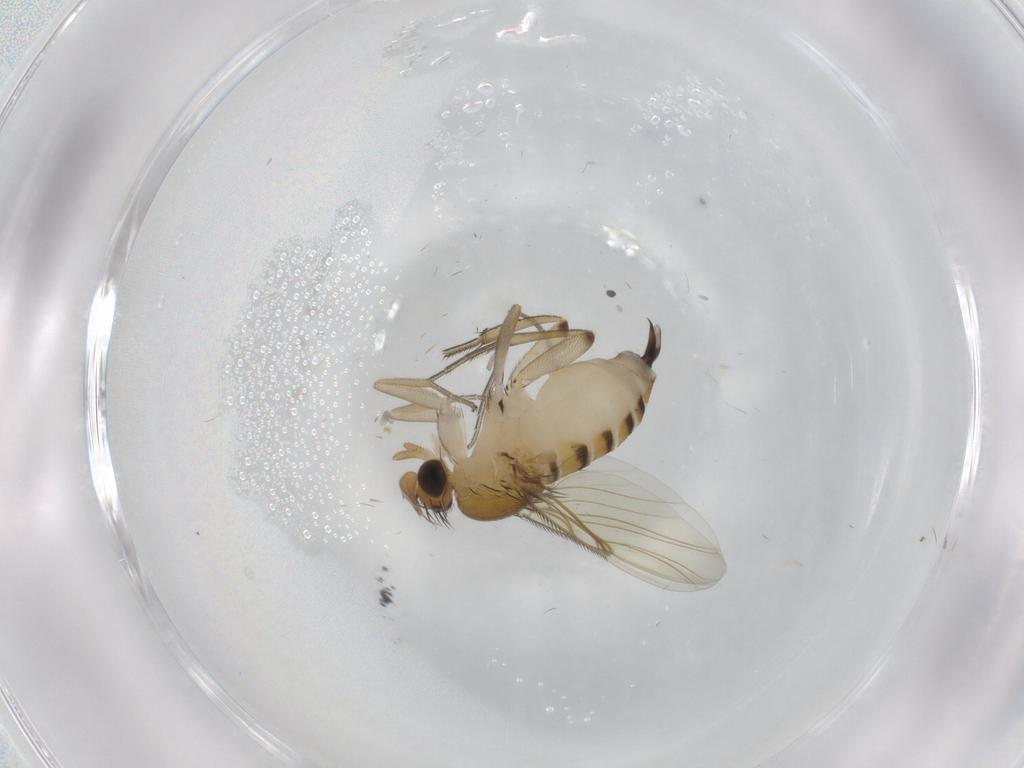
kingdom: Animalia
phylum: Arthropoda
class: Insecta
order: Diptera
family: Phoridae
